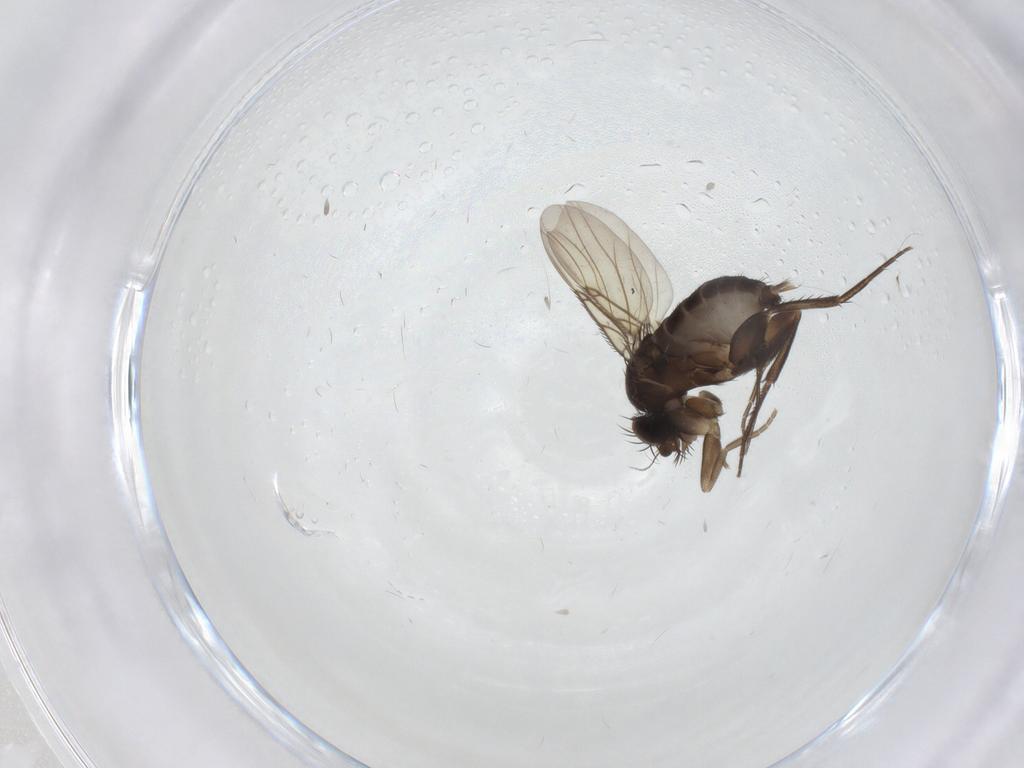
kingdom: Animalia
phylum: Arthropoda
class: Insecta
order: Diptera
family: Phoridae
